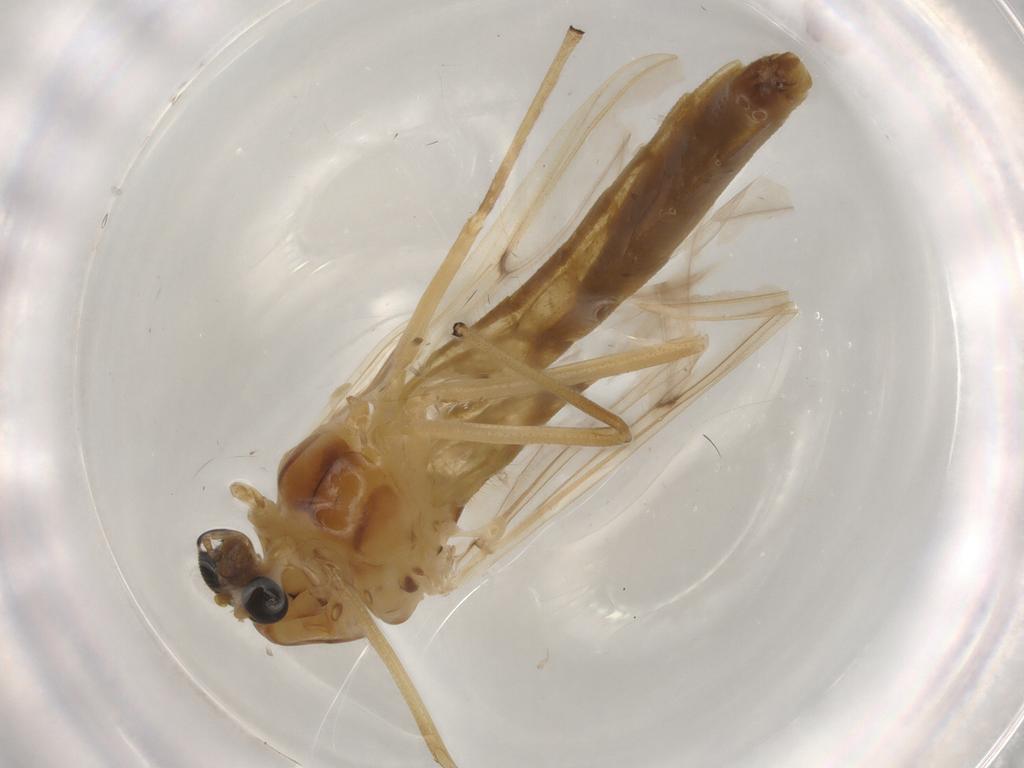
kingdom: Animalia
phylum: Arthropoda
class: Insecta
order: Diptera
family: Chironomidae
